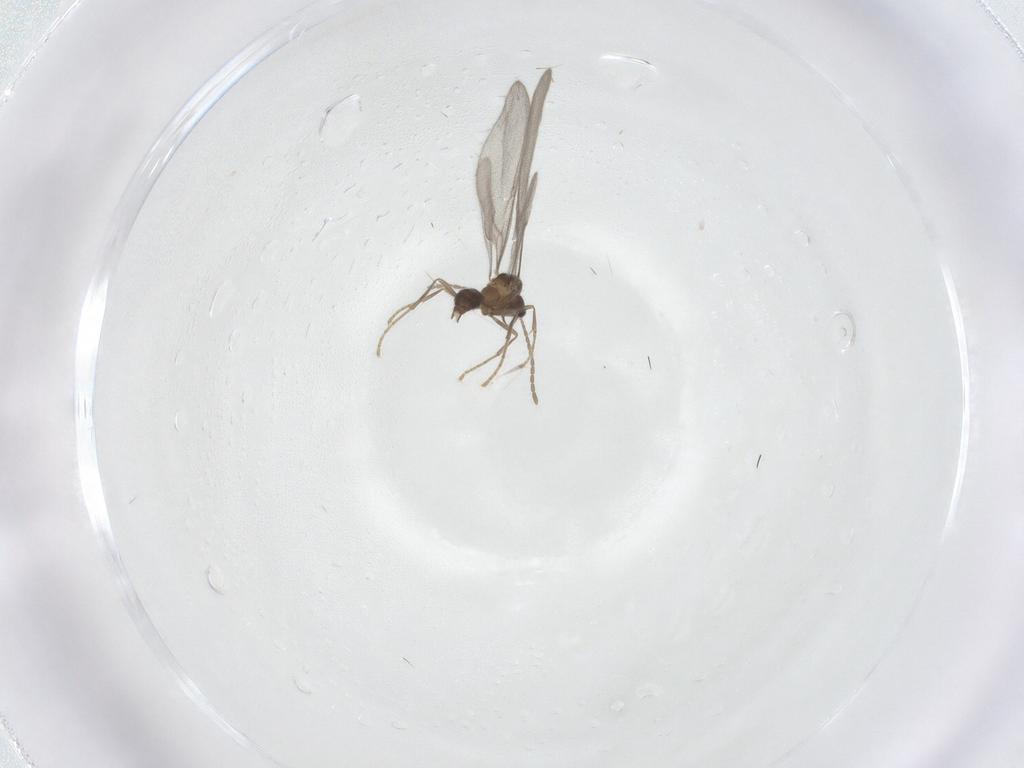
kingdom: Animalia
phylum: Arthropoda
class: Insecta
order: Hymenoptera
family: Formicidae
